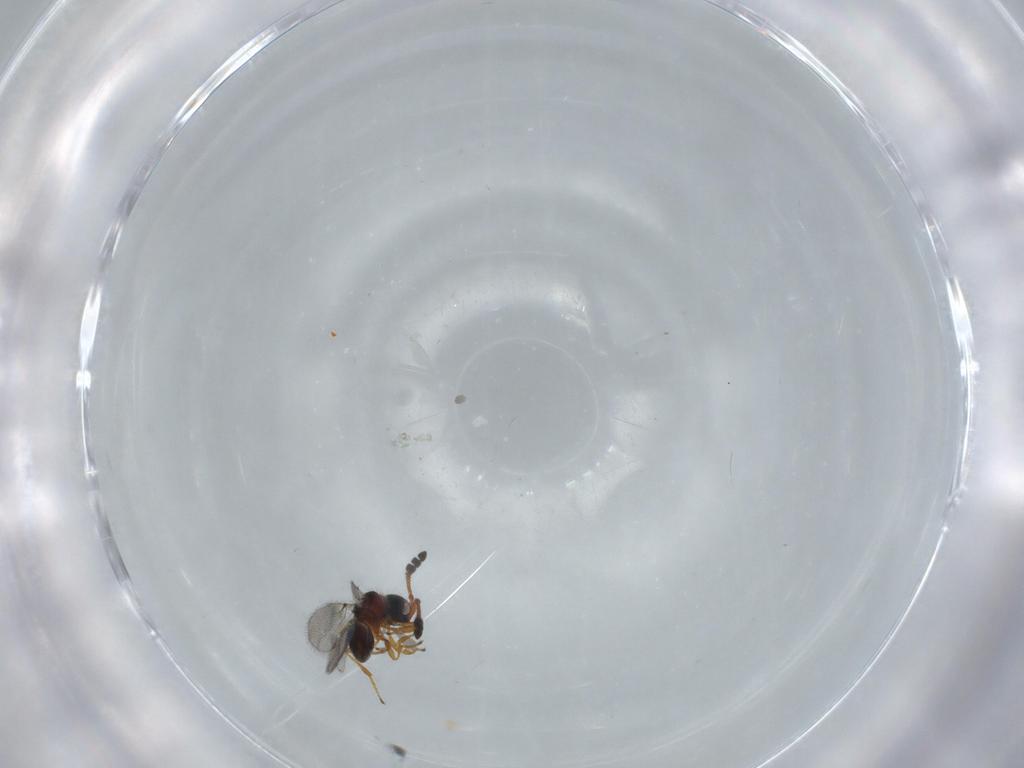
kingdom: Animalia
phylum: Arthropoda
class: Insecta
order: Hymenoptera
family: Diapriidae
